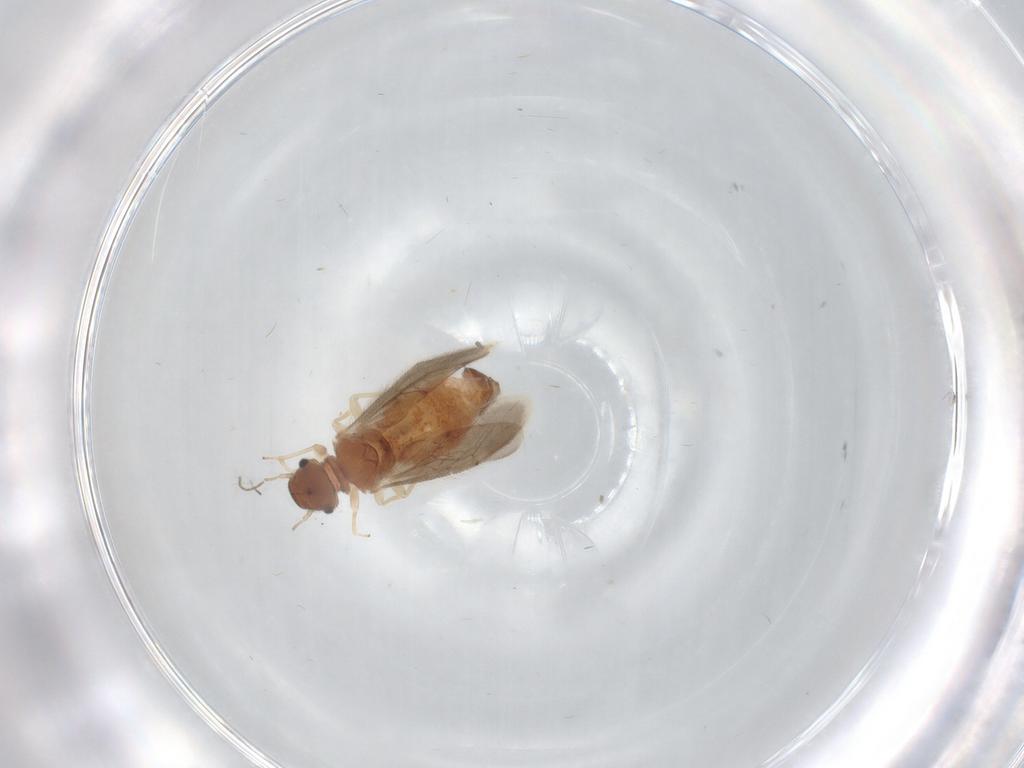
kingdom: Animalia
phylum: Arthropoda
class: Insecta
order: Psocodea
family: Archipsocidae
